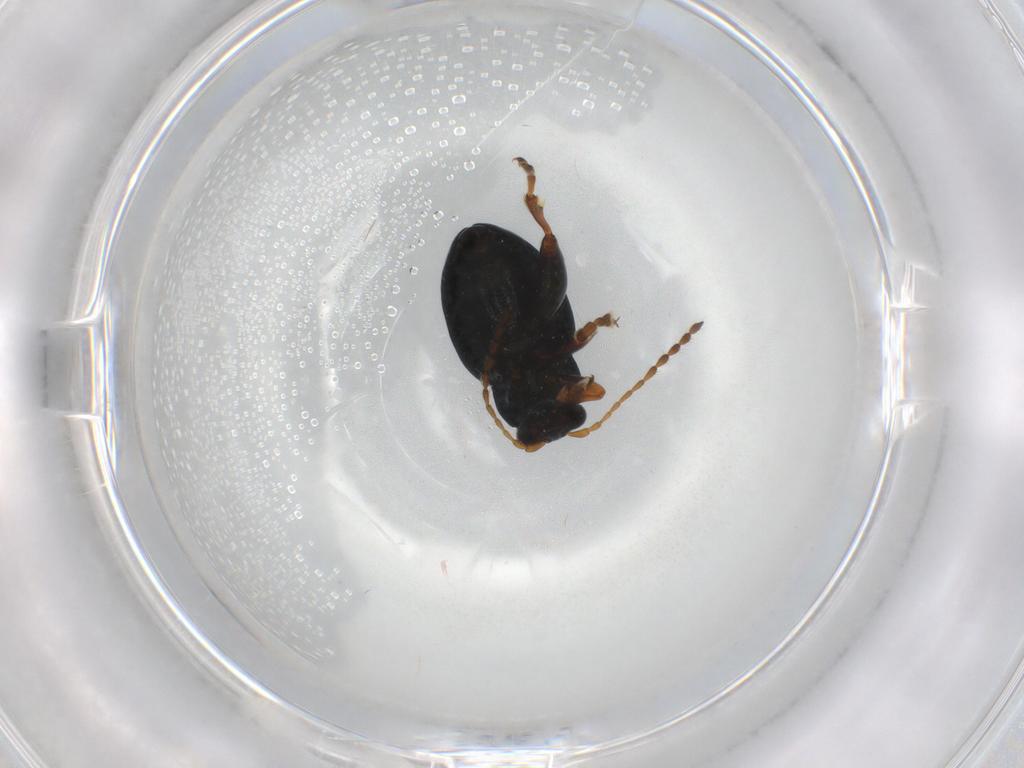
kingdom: Animalia
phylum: Arthropoda
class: Insecta
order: Coleoptera
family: Chrysomelidae
